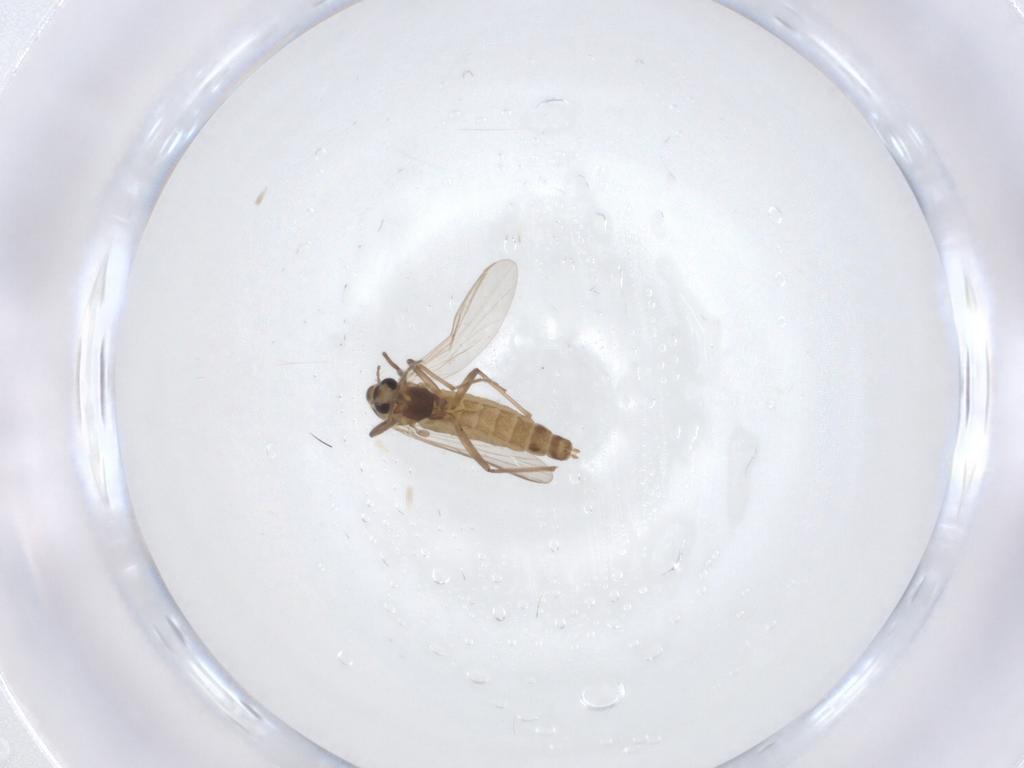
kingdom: Animalia
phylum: Arthropoda
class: Insecta
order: Diptera
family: Chironomidae
